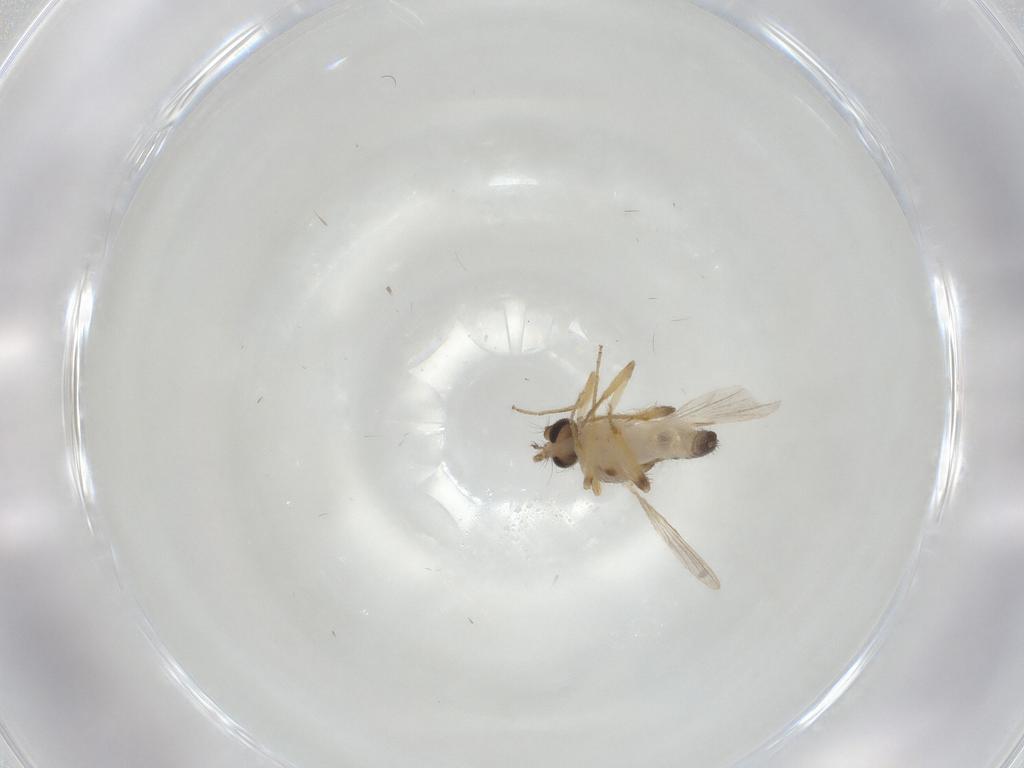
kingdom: Animalia
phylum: Arthropoda
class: Insecta
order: Diptera
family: Ceratopogonidae
